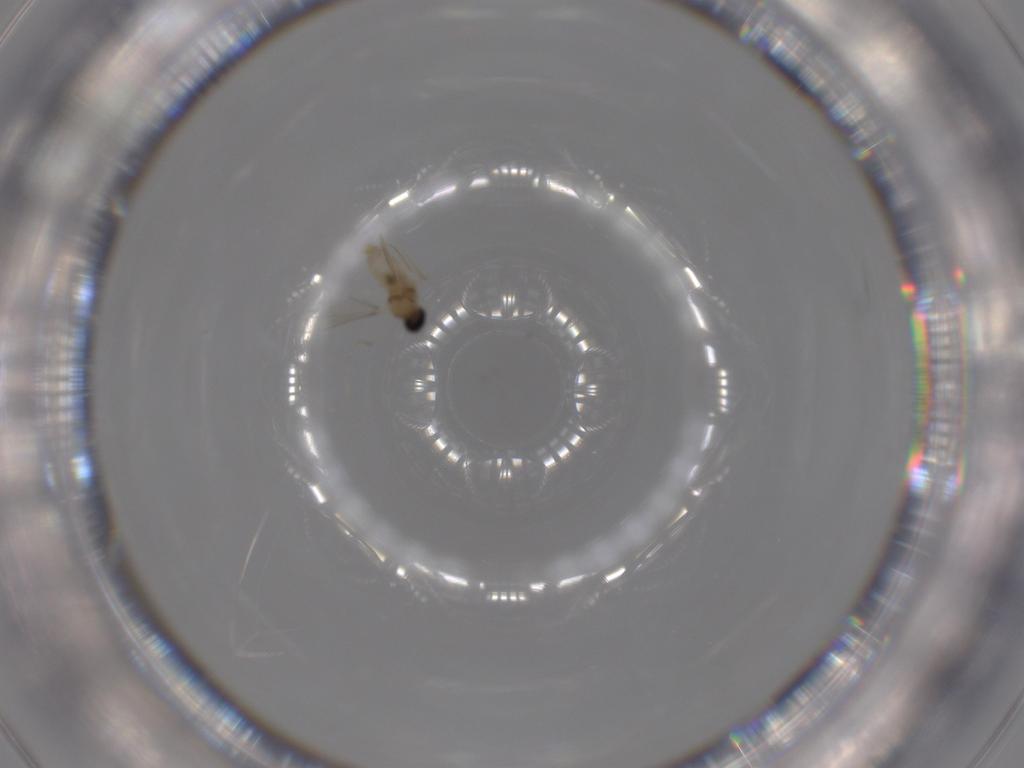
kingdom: Animalia
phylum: Arthropoda
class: Insecta
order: Diptera
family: Cecidomyiidae
